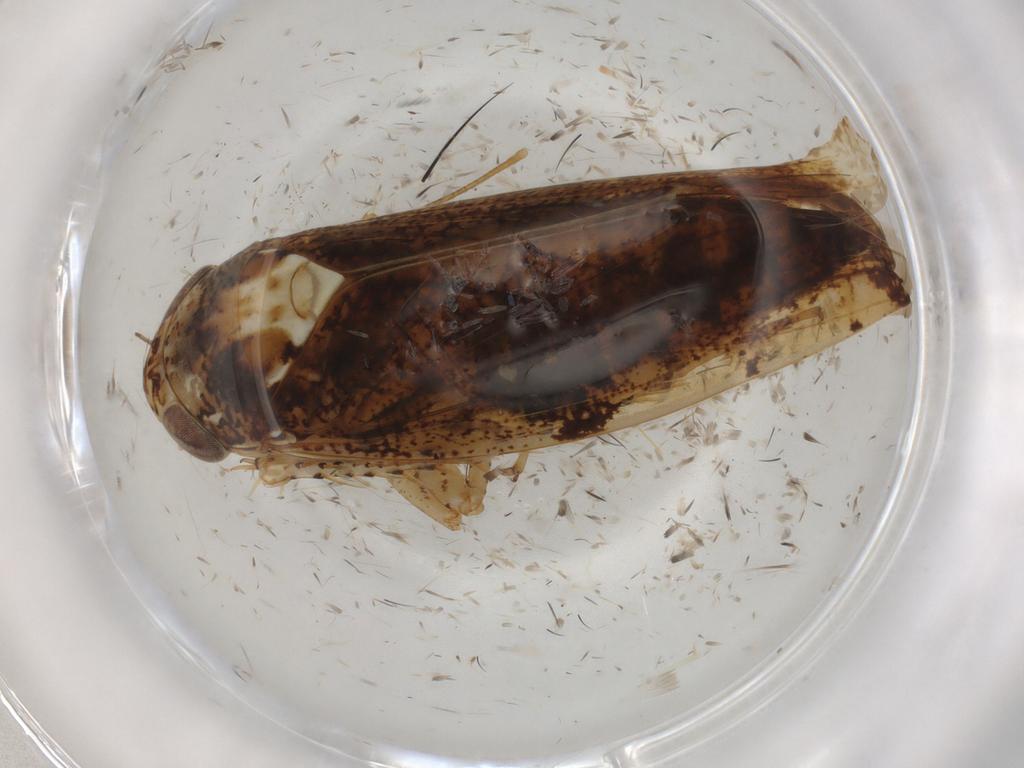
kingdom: Animalia
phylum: Arthropoda
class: Insecta
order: Hemiptera
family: Cicadellidae
